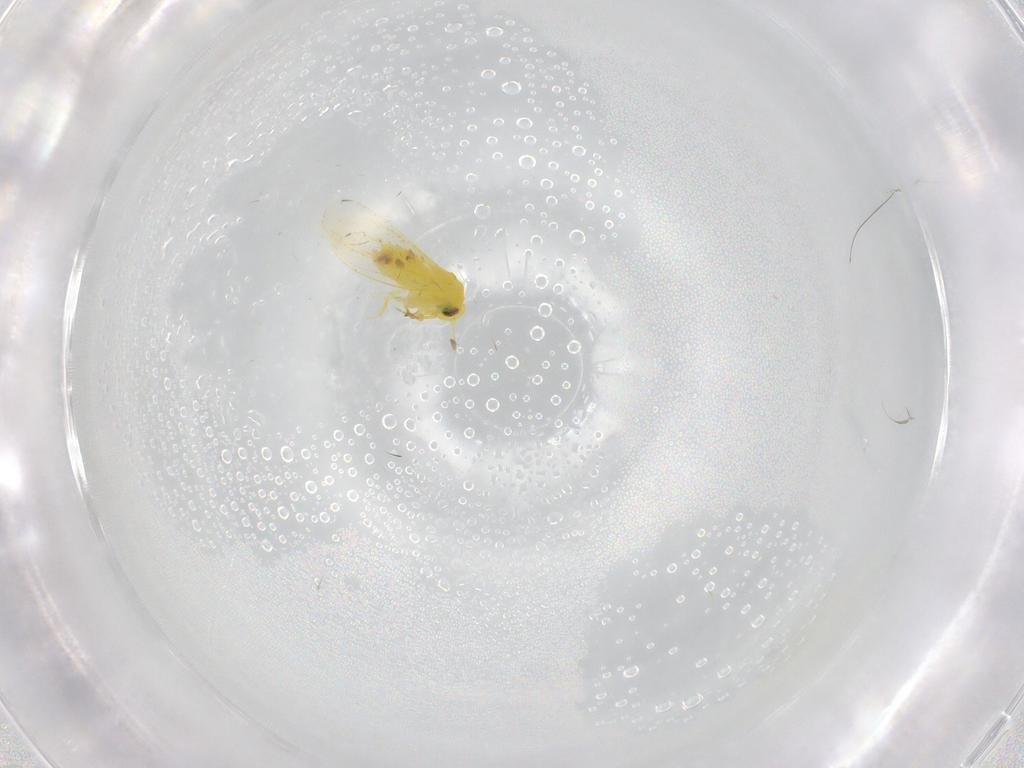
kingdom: Animalia
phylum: Arthropoda
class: Insecta
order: Hemiptera
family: Aleyrodidae
